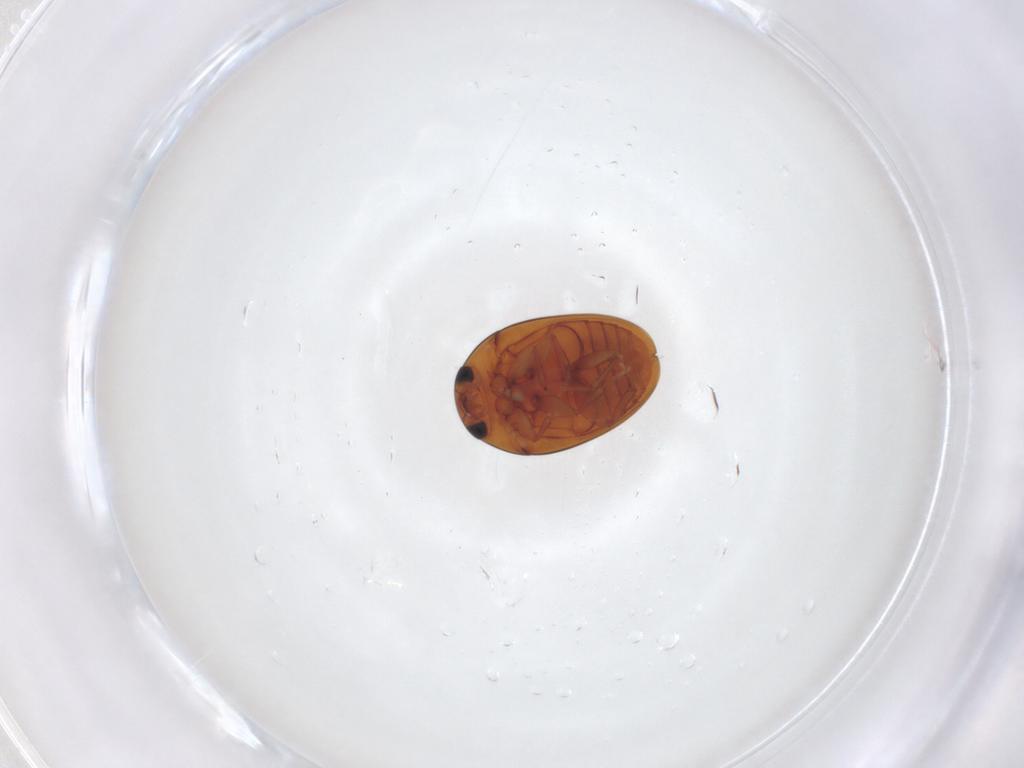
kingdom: Animalia
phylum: Arthropoda
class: Insecta
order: Coleoptera
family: Phalacridae
